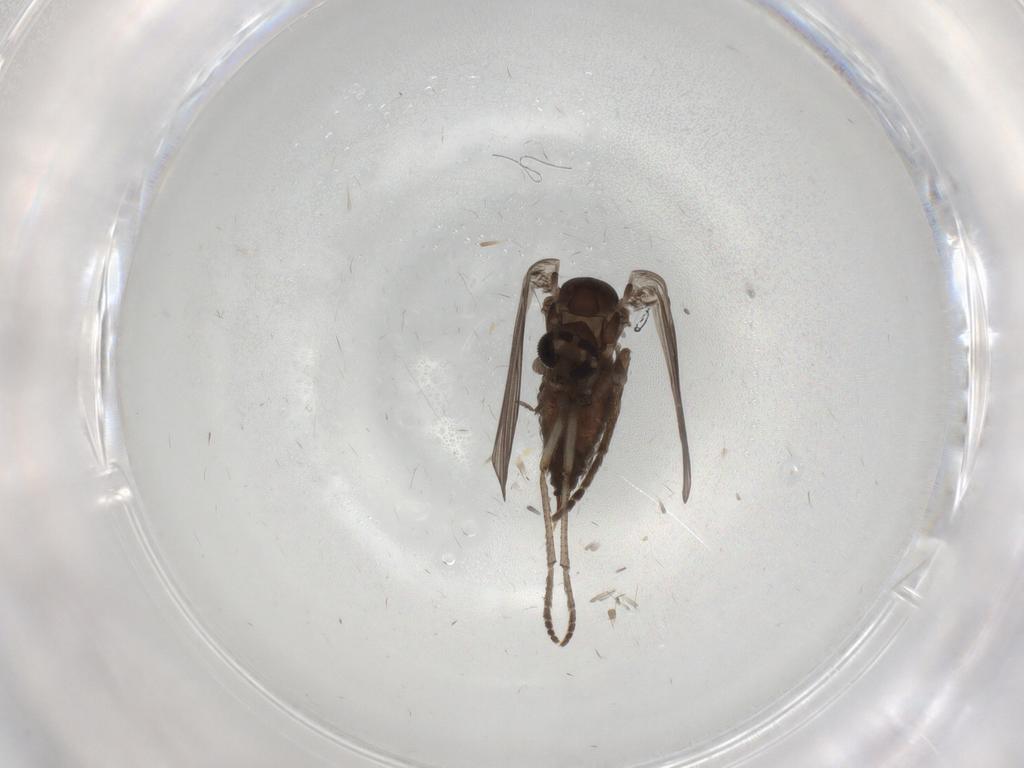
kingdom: Animalia
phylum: Arthropoda
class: Insecta
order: Diptera
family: Psychodidae
